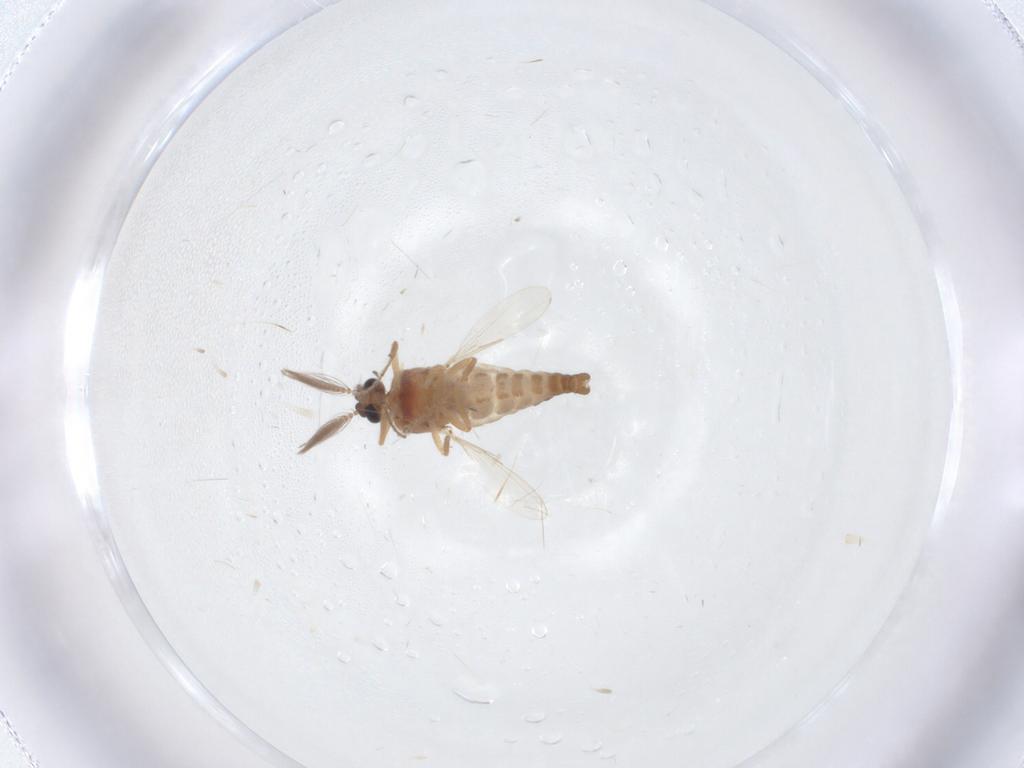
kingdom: Animalia
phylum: Arthropoda
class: Insecta
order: Diptera
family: Ceratopogonidae
